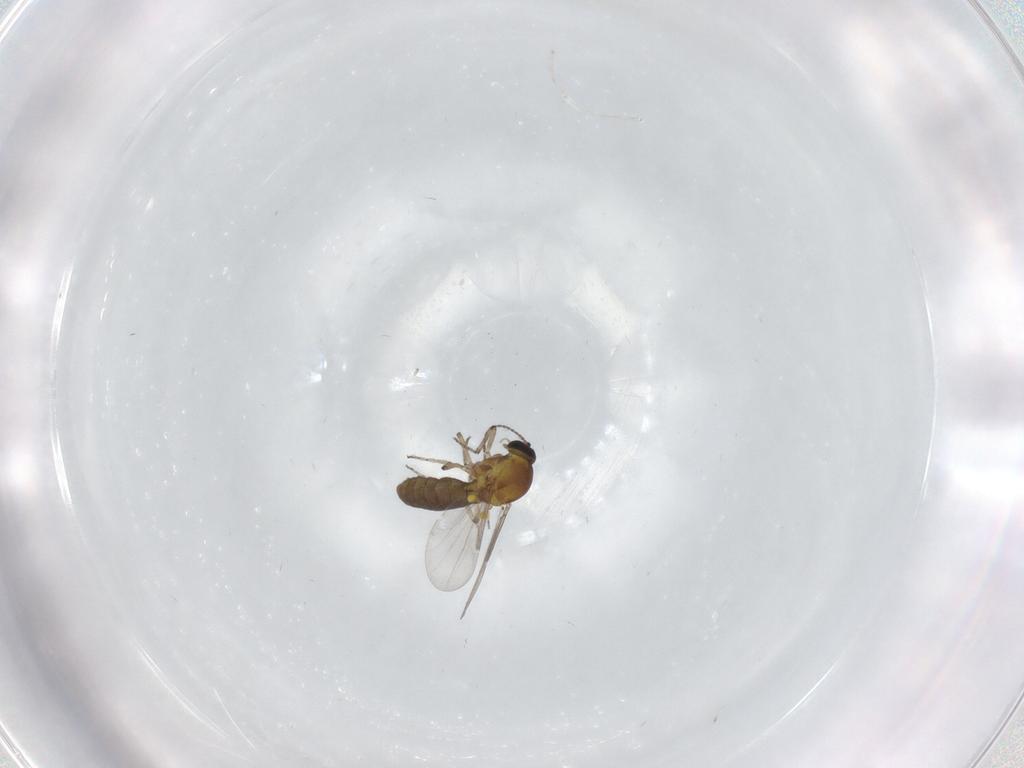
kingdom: Animalia
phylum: Arthropoda
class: Insecta
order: Diptera
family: Ceratopogonidae
